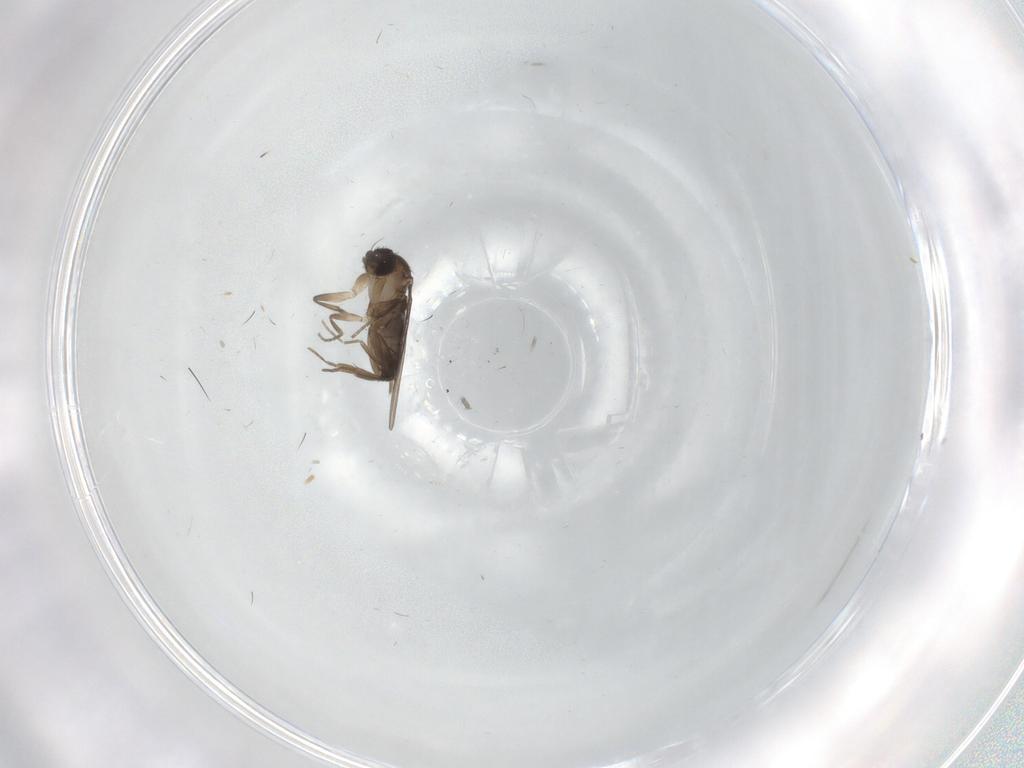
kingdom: Animalia
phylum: Arthropoda
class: Insecta
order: Diptera
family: Phoridae
